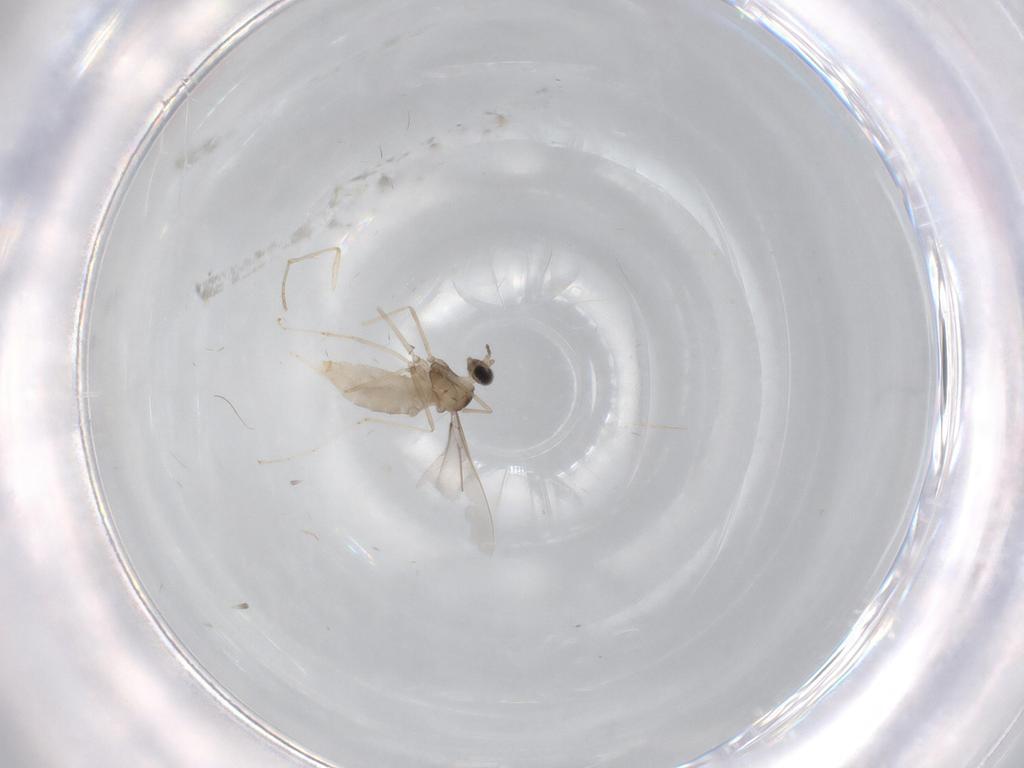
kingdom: Animalia
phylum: Arthropoda
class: Insecta
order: Diptera
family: Cecidomyiidae
